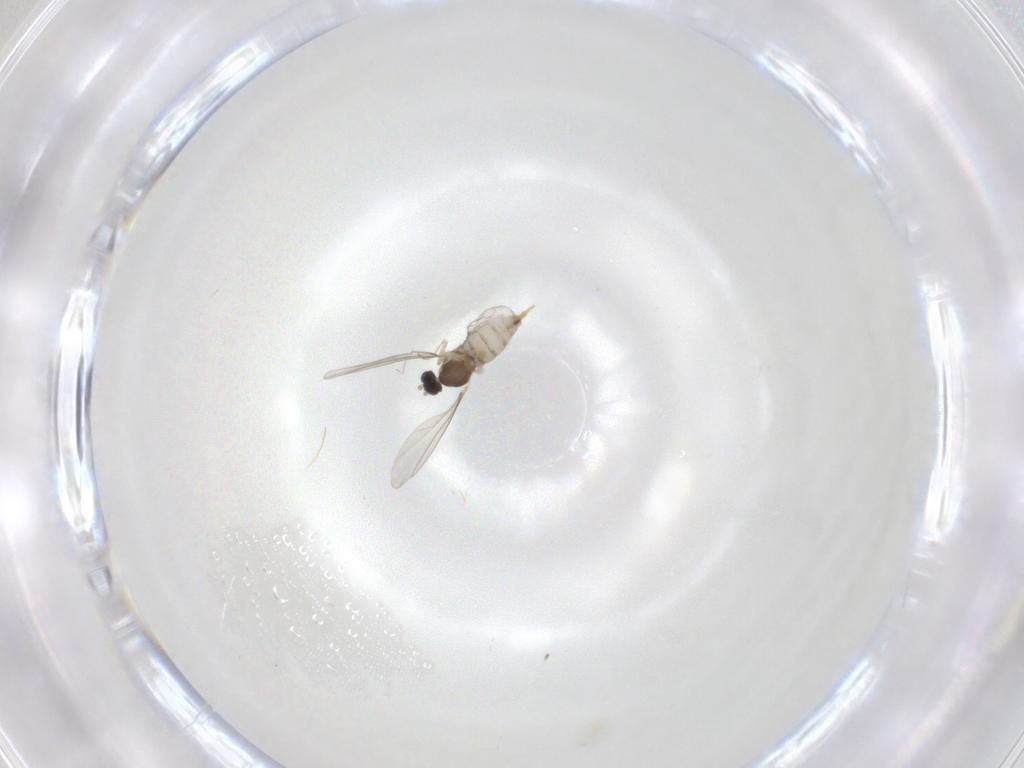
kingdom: Animalia
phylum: Arthropoda
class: Insecta
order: Diptera
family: Cecidomyiidae
